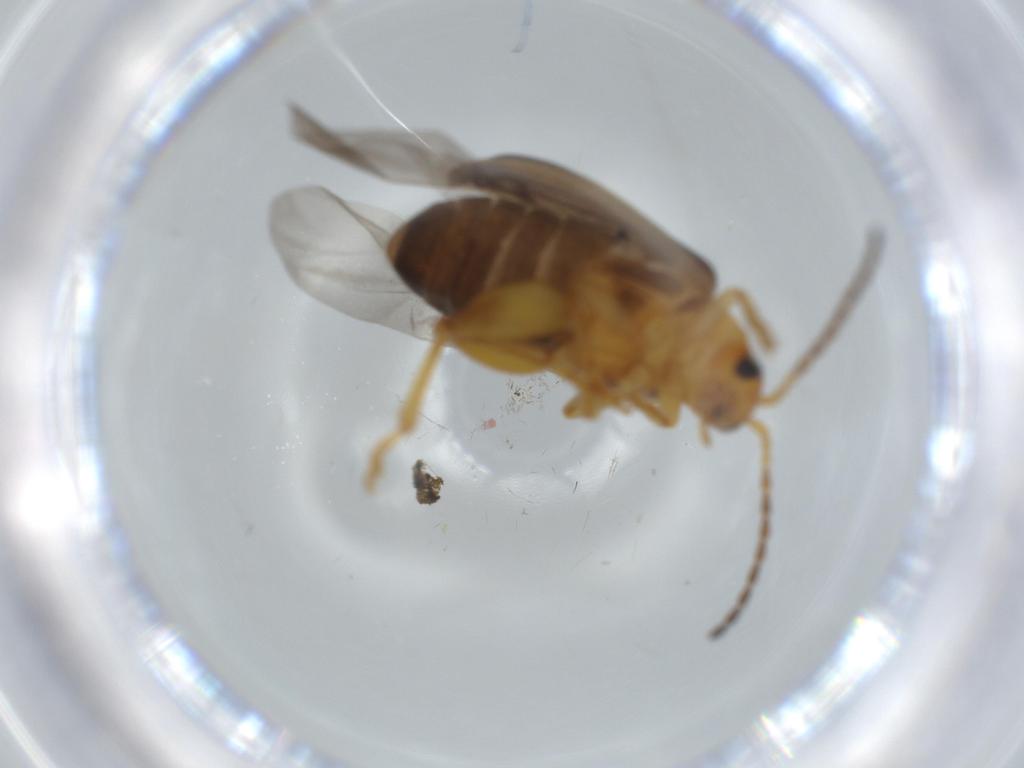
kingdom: Animalia
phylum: Arthropoda
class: Insecta
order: Coleoptera
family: Chrysomelidae
